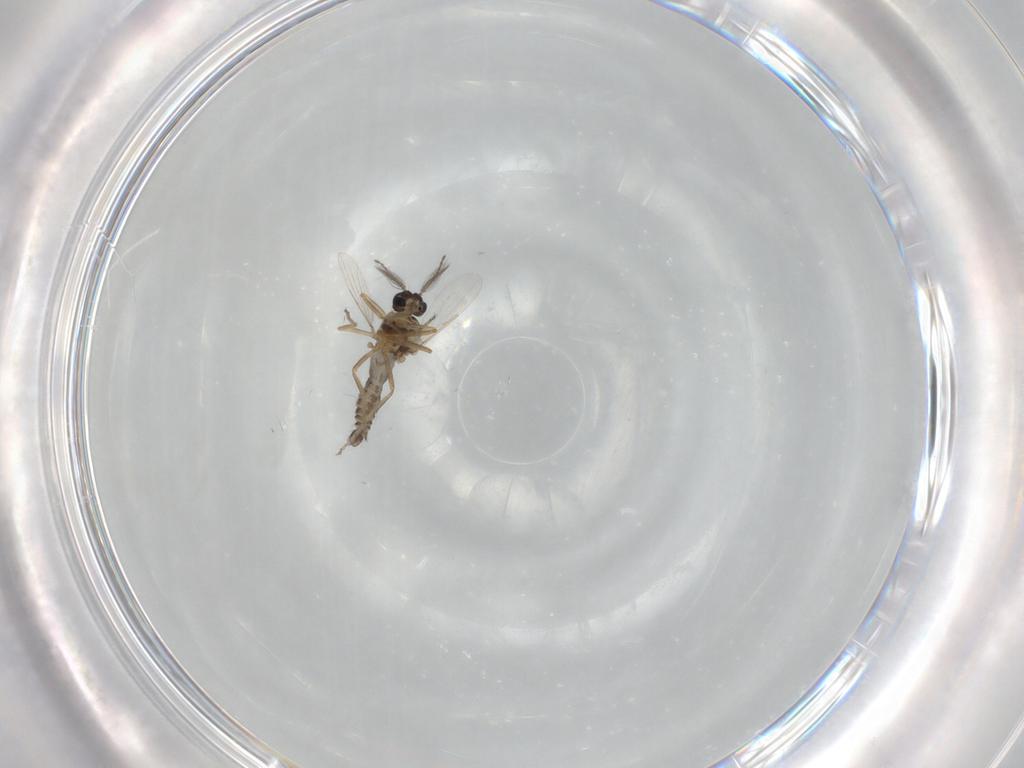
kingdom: Animalia
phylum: Arthropoda
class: Insecta
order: Diptera
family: Ceratopogonidae
